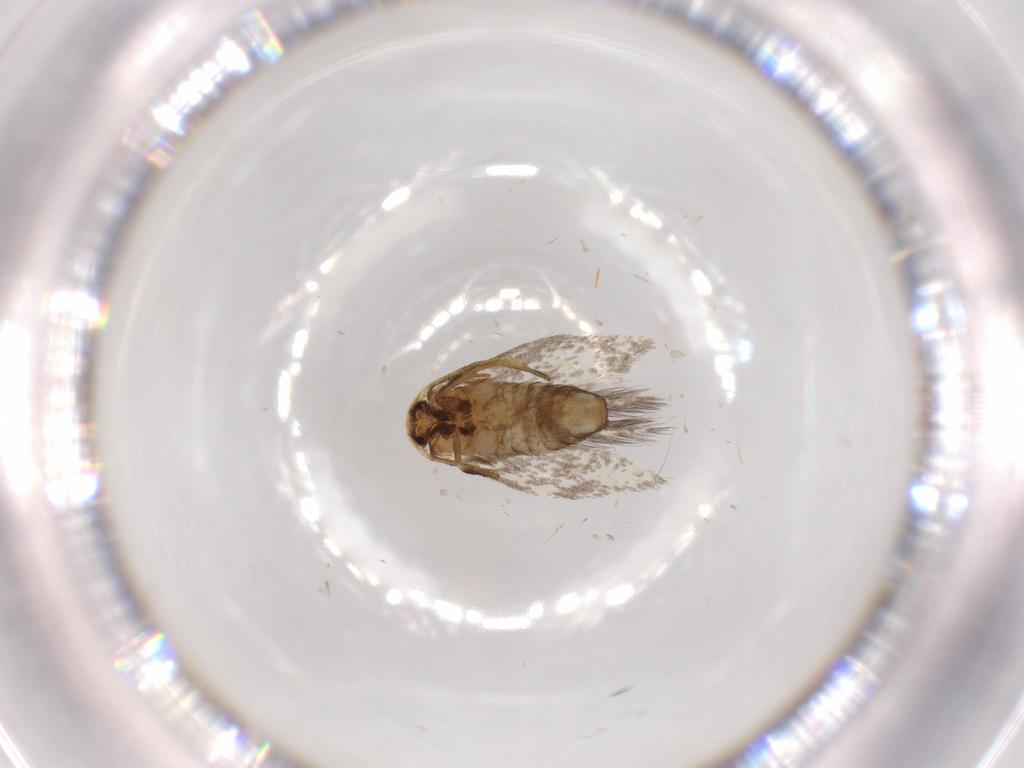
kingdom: Animalia
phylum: Arthropoda
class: Insecta
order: Lepidoptera
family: Nepticulidae
